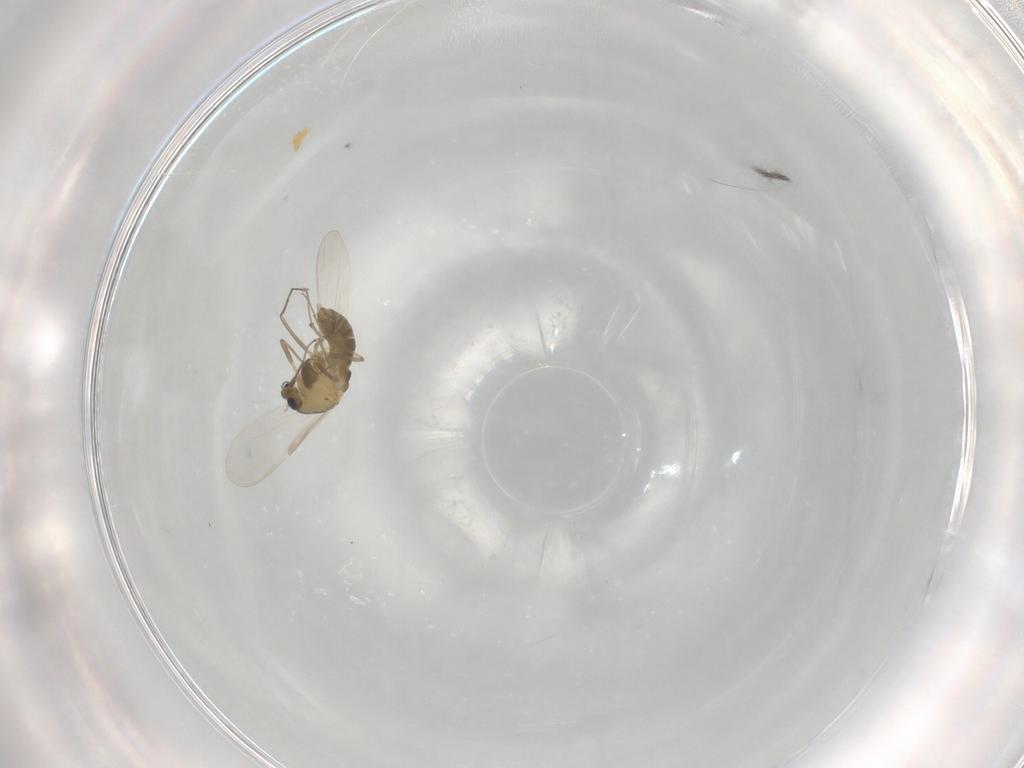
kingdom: Animalia
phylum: Arthropoda
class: Insecta
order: Diptera
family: Chironomidae
